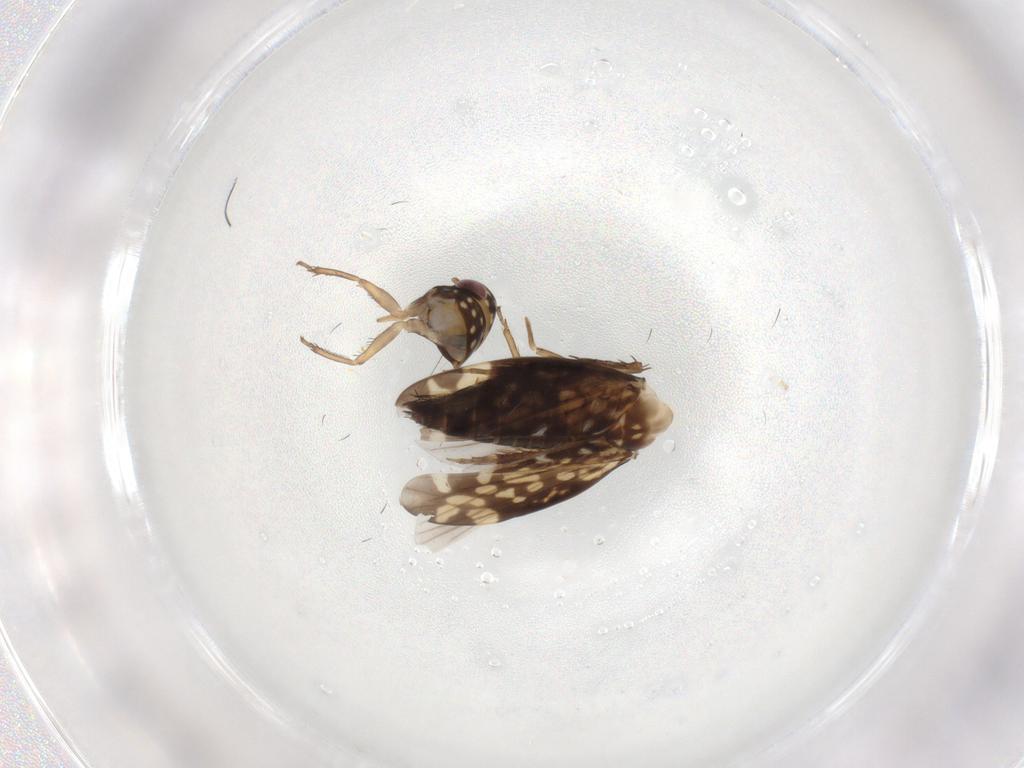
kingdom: Animalia
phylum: Arthropoda
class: Insecta
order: Hemiptera
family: Cicadellidae
